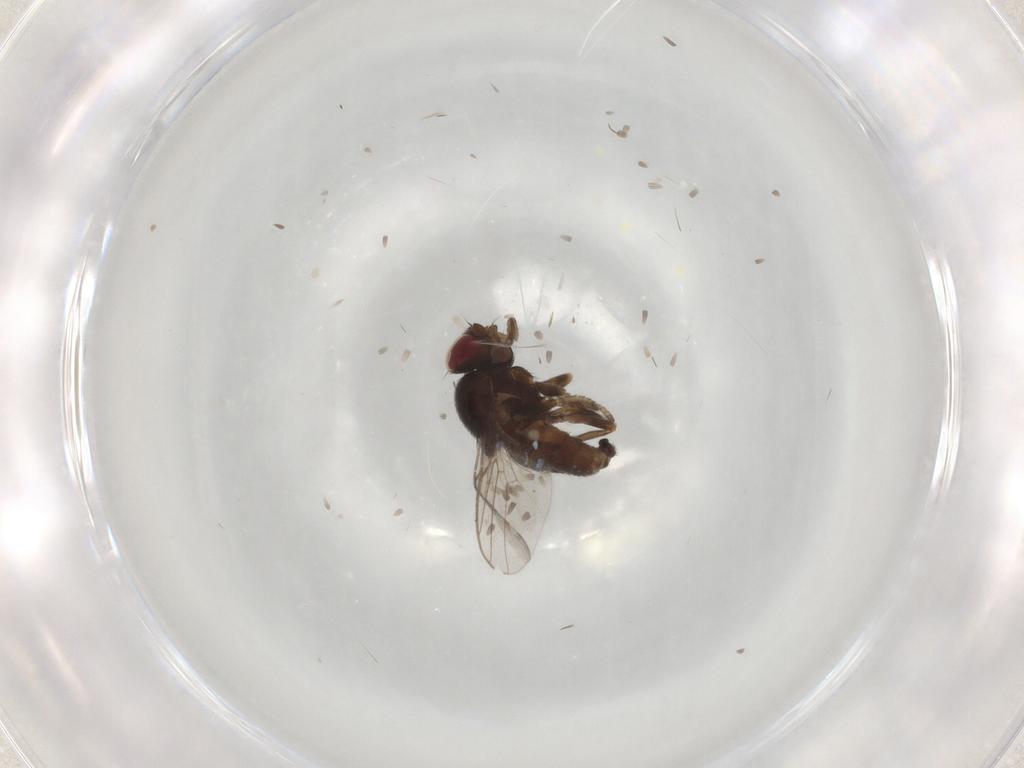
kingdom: Animalia
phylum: Arthropoda
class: Insecta
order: Diptera
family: Chloropidae
